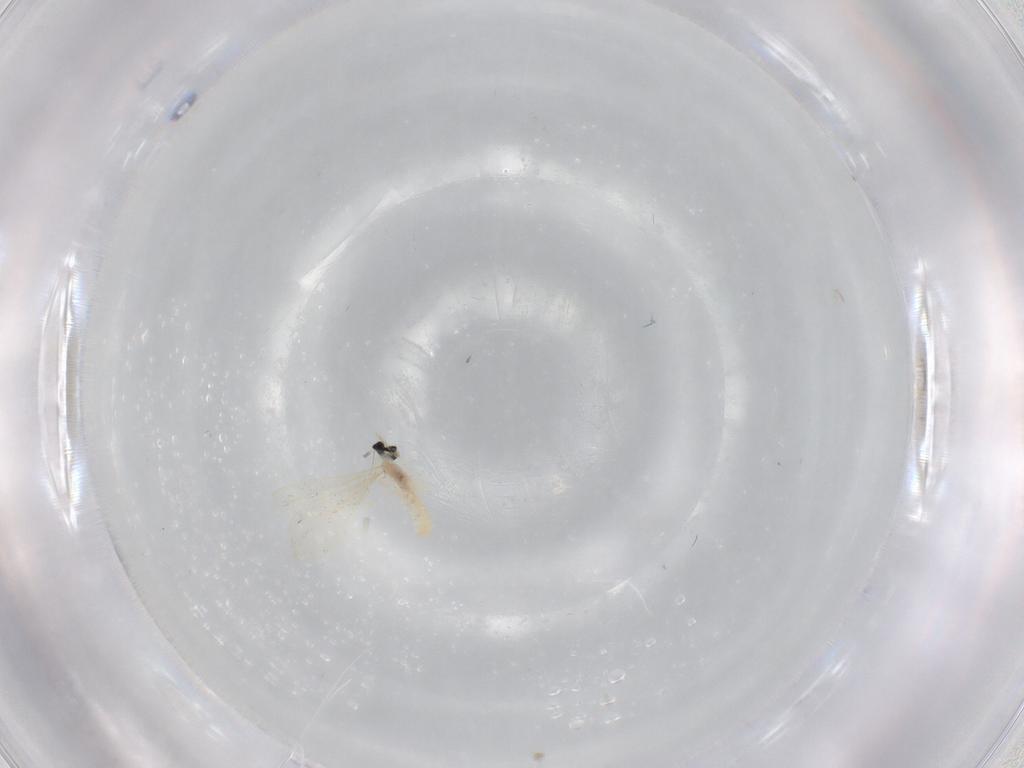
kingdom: Animalia
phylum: Arthropoda
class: Insecta
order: Diptera
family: Cecidomyiidae
